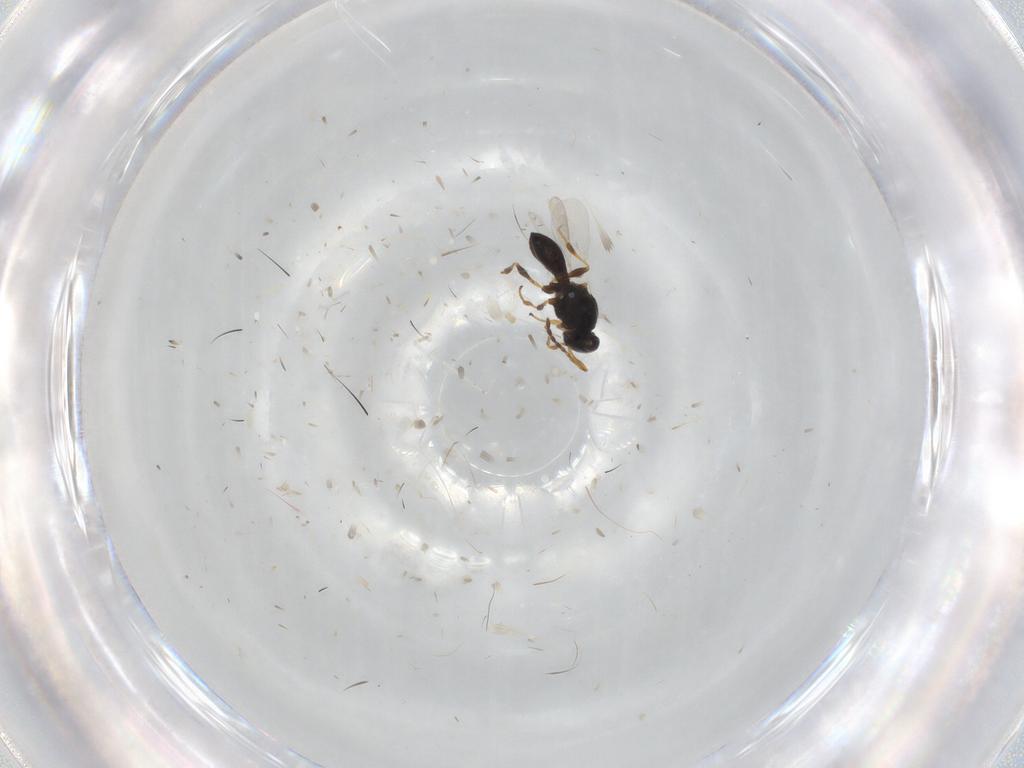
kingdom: Animalia
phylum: Arthropoda
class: Insecta
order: Hymenoptera
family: Platygastridae
